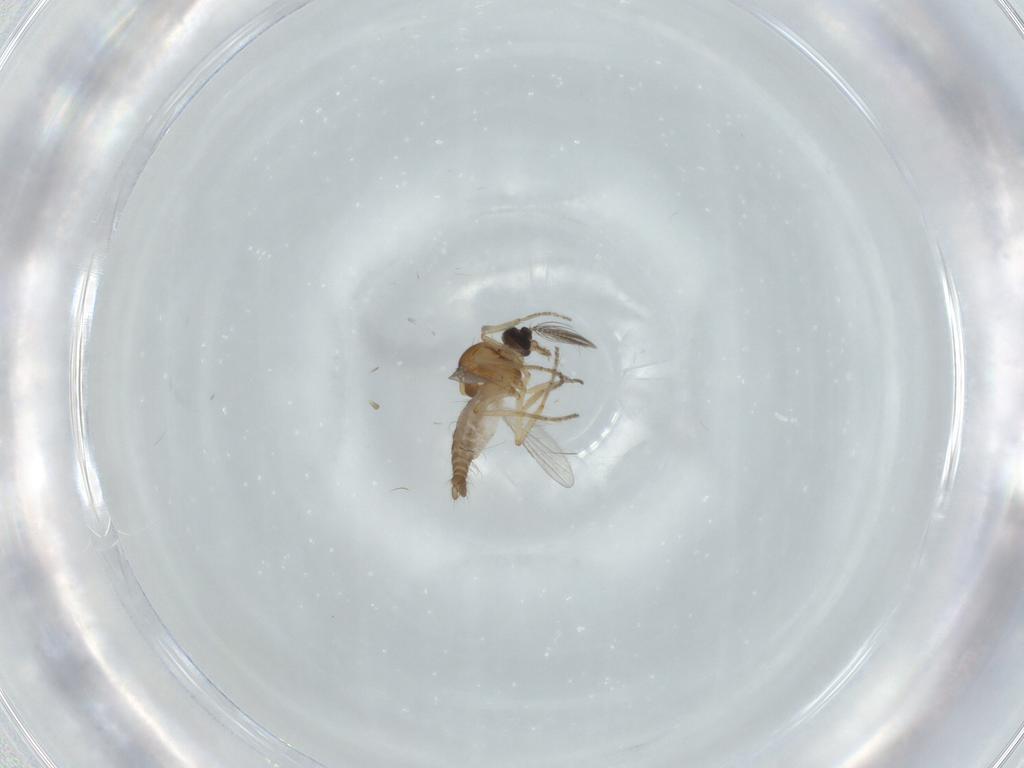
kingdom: Animalia
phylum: Arthropoda
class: Insecta
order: Diptera
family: Ceratopogonidae
